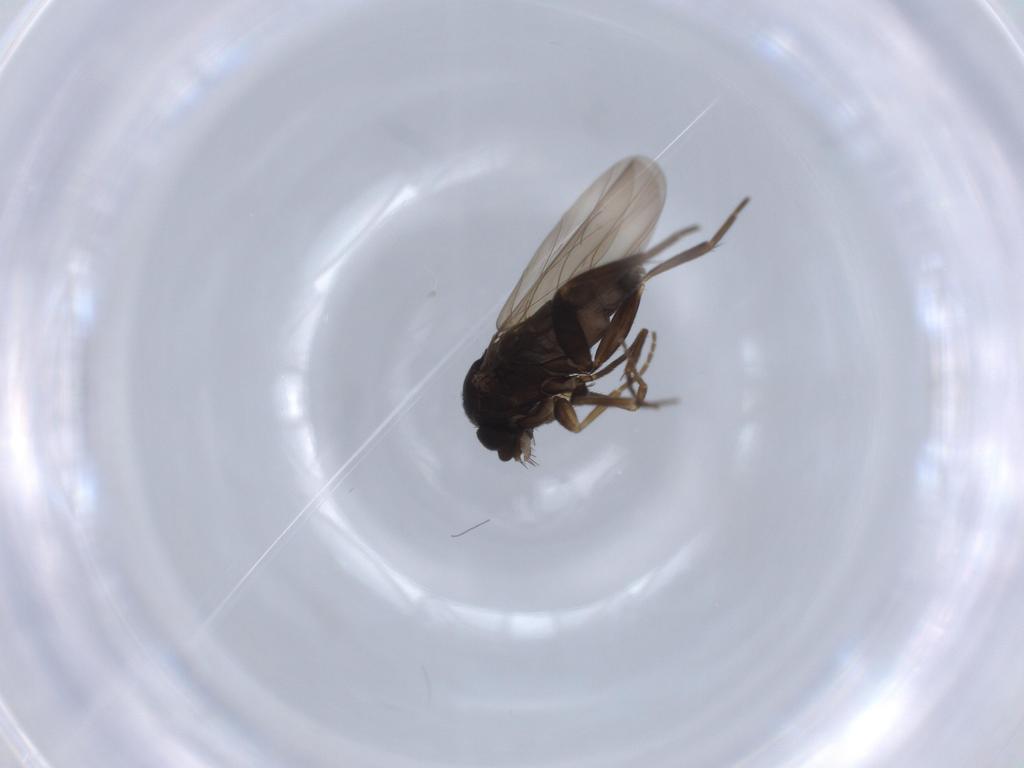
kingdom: Animalia
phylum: Arthropoda
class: Insecta
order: Diptera
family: Phoridae
